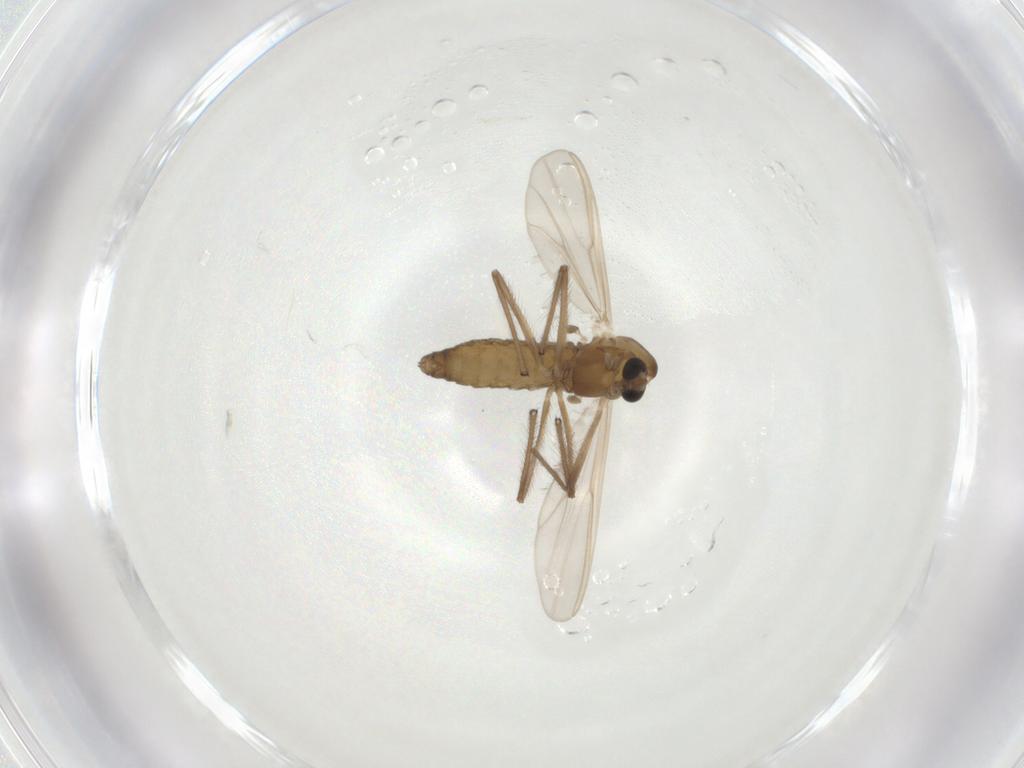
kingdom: Animalia
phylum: Arthropoda
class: Insecta
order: Diptera
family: Chironomidae
